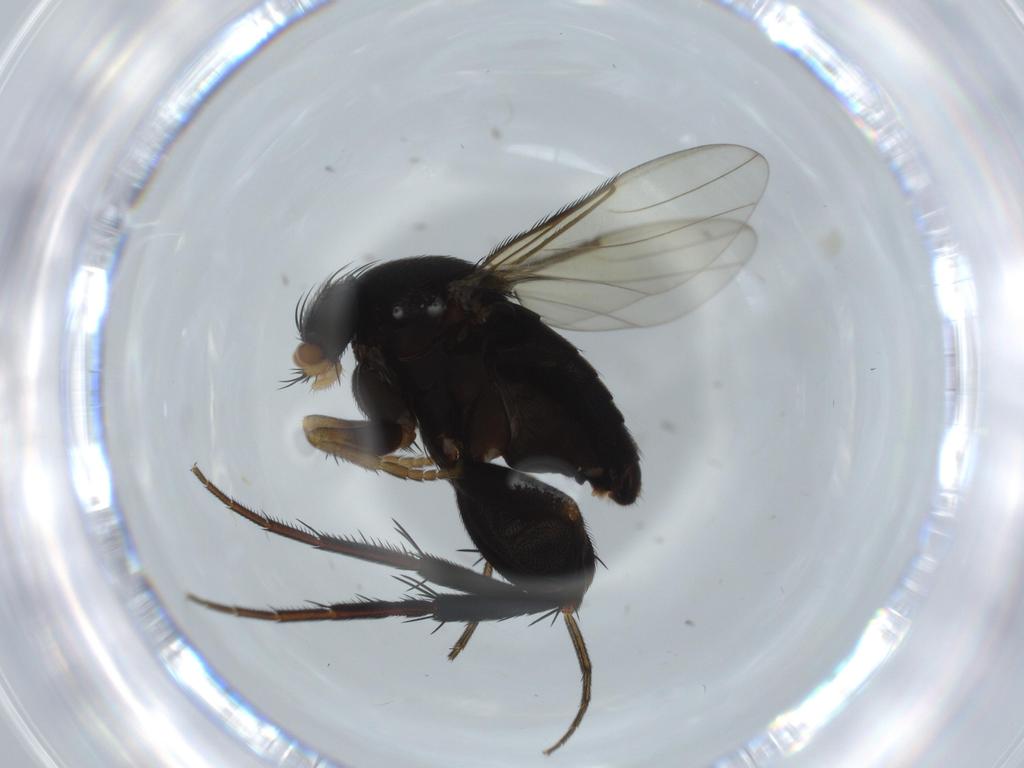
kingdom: Animalia
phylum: Arthropoda
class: Insecta
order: Diptera
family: Phoridae
